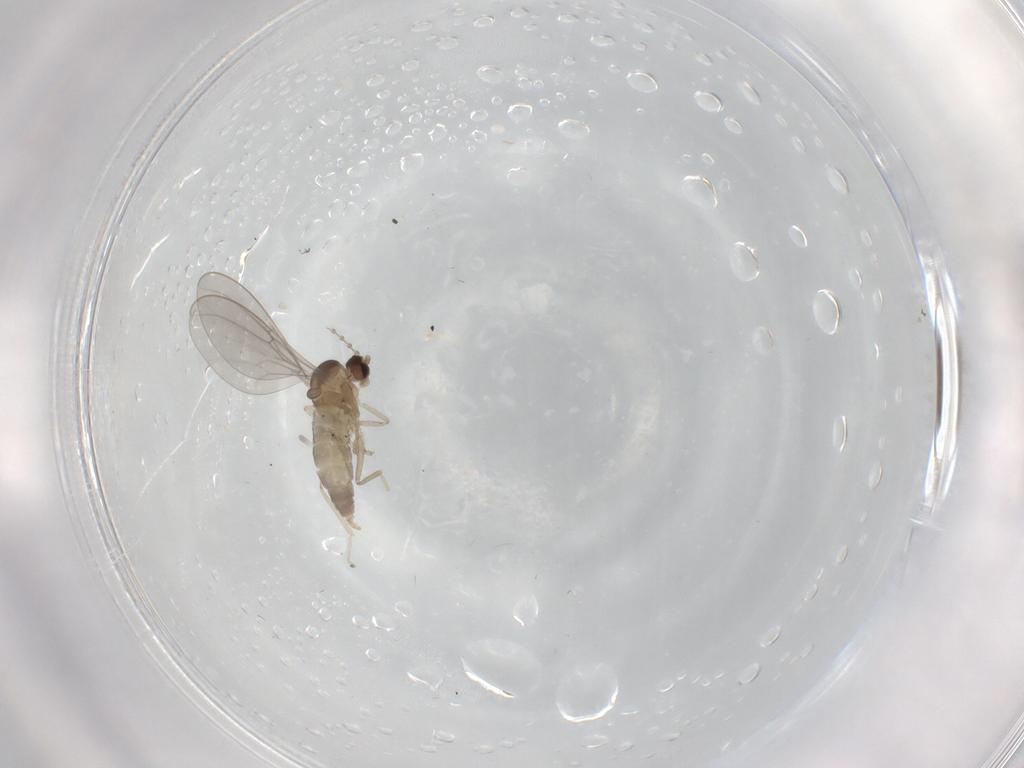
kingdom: Animalia
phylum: Arthropoda
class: Insecta
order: Diptera
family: Cecidomyiidae
